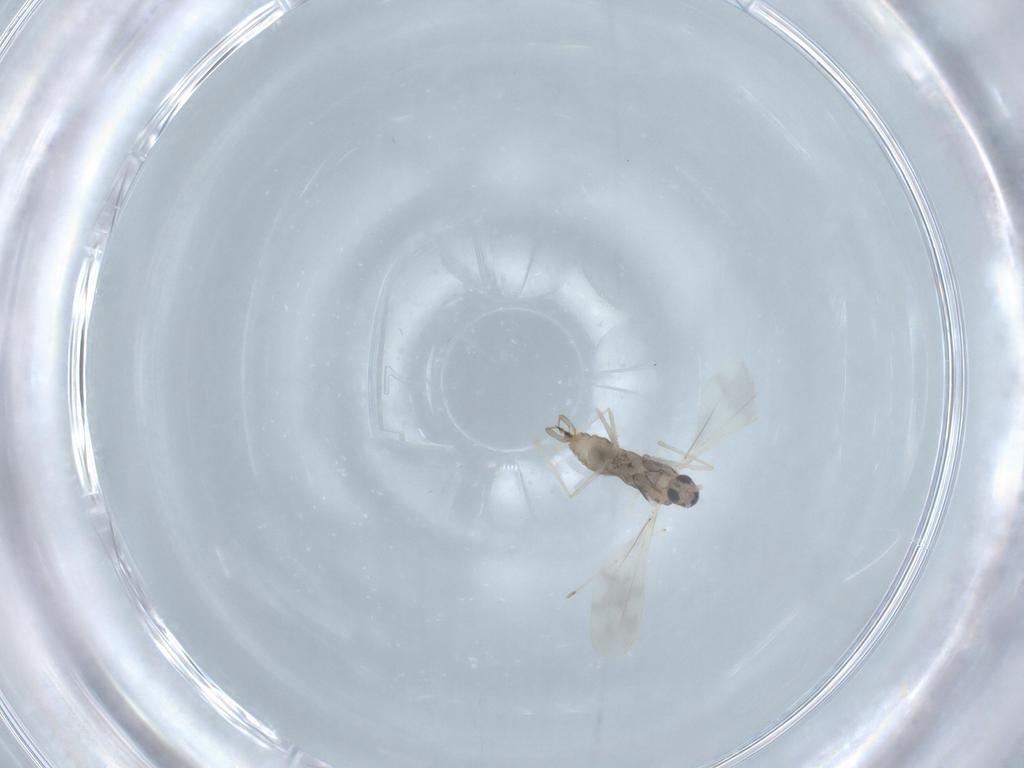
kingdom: Animalia
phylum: Arthropoda
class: Insecta
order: Diptera
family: Cecidomyiidae
